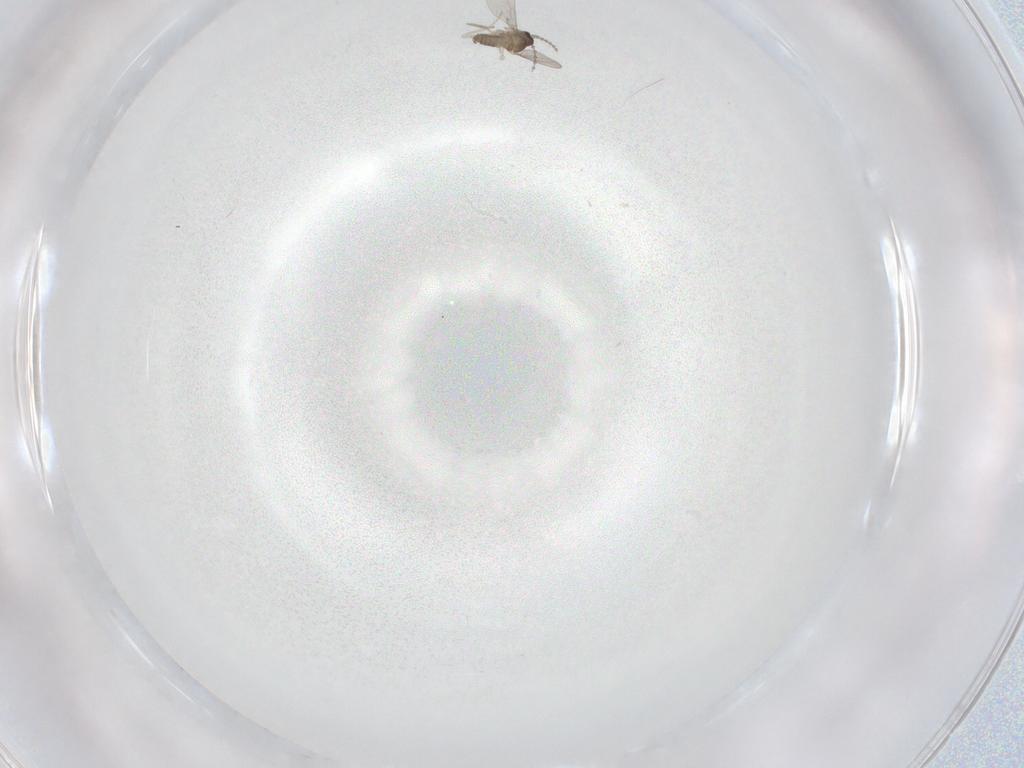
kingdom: Animalia
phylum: Arthropoda
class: Insecta
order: Diptera
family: Cecidomyiidae
